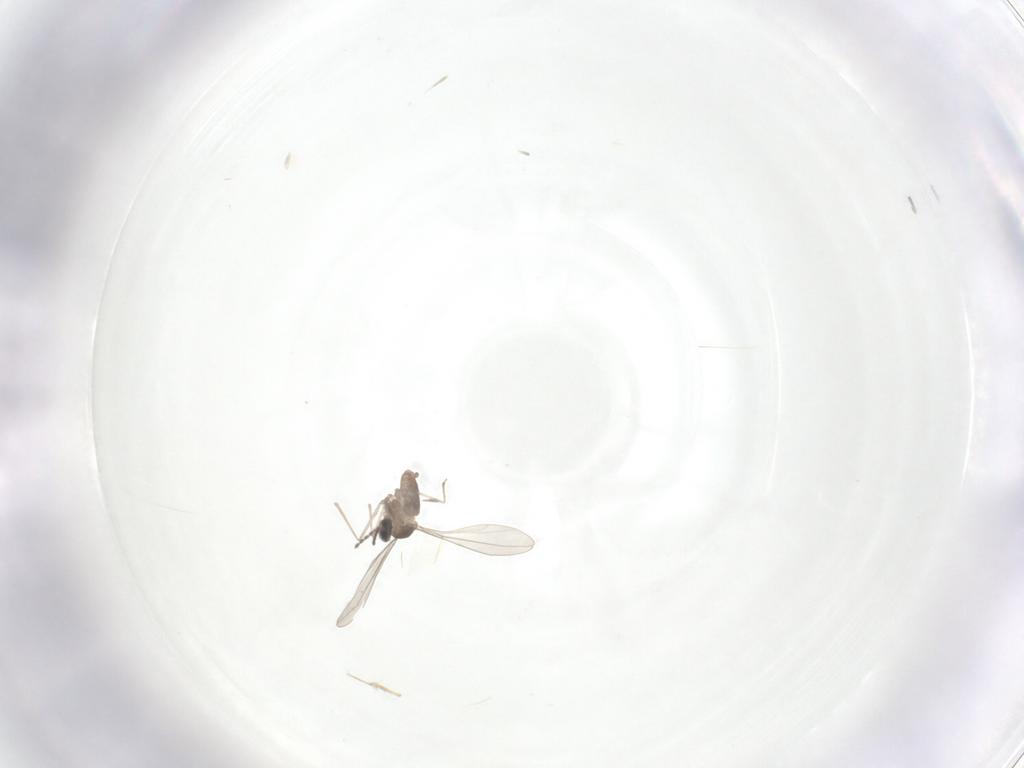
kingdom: Animalia
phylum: Arthropoda
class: Insecta
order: Diptera
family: Cecidomyiidae
